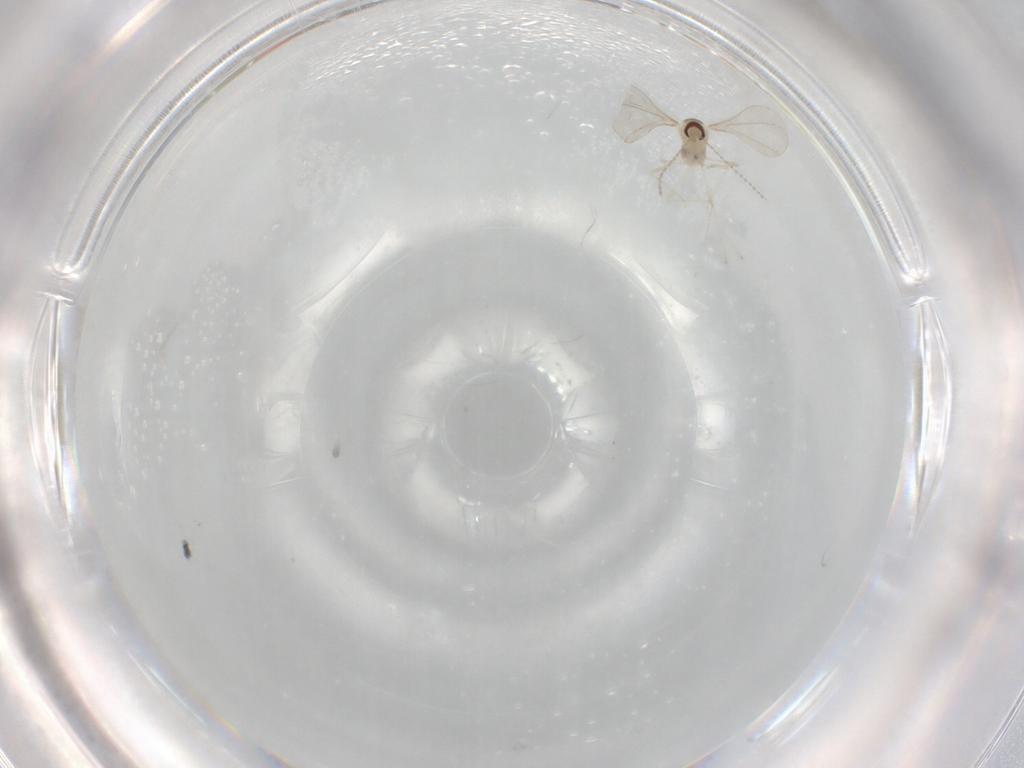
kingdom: Animalia
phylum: Arthropoda
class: Insecta
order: Diptera
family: Cecidomyiidae
